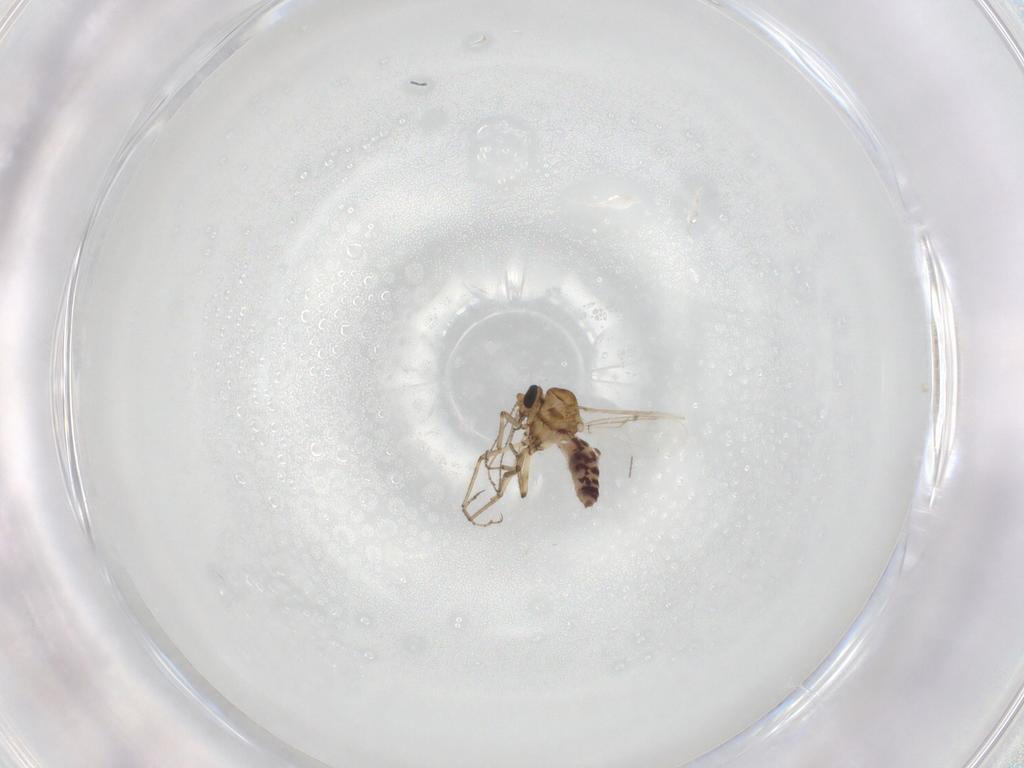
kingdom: Animalia
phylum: Arthropoda
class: Insecta
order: Diptera
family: Ceratopogonidae
